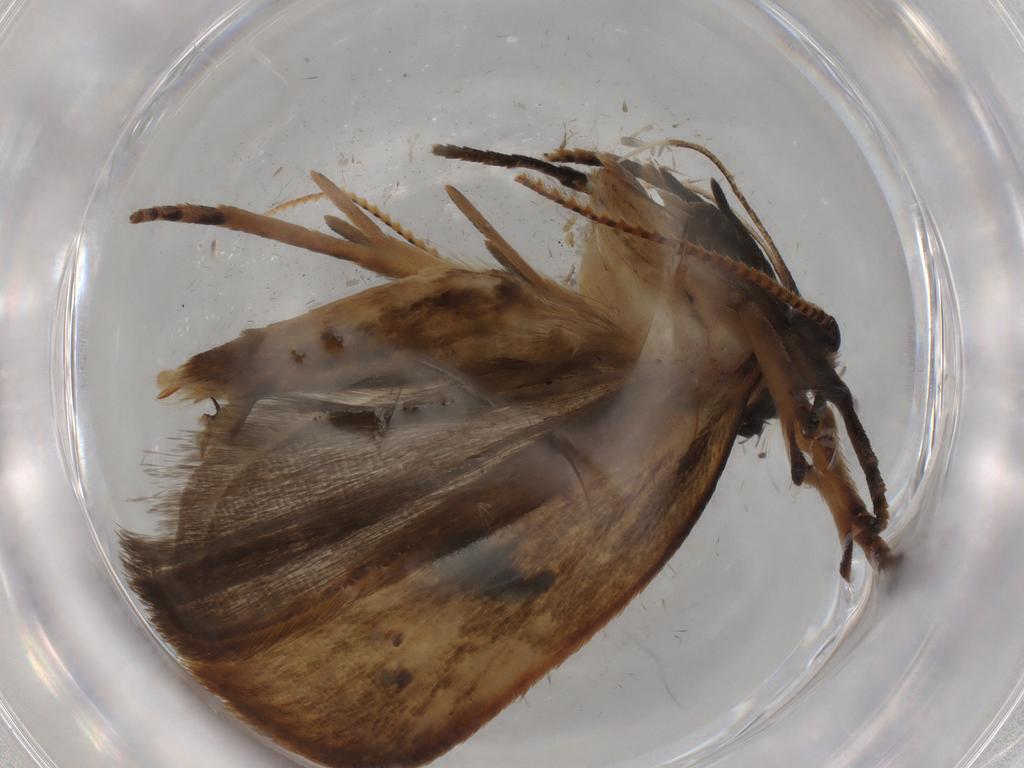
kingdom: Animalia
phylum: Arthropoda
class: Insecta
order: Lepidoptera
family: Gelechiidae
